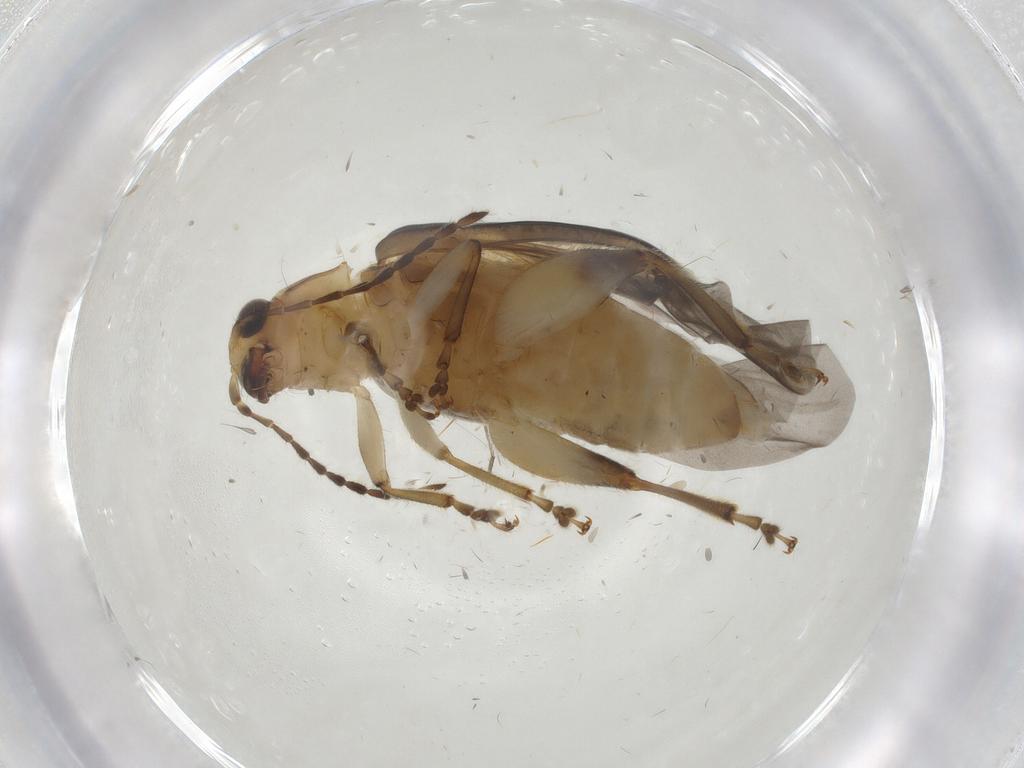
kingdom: Animalia
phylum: Arthropoda
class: Insecta
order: Coleoptera
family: Chrysomelidae
